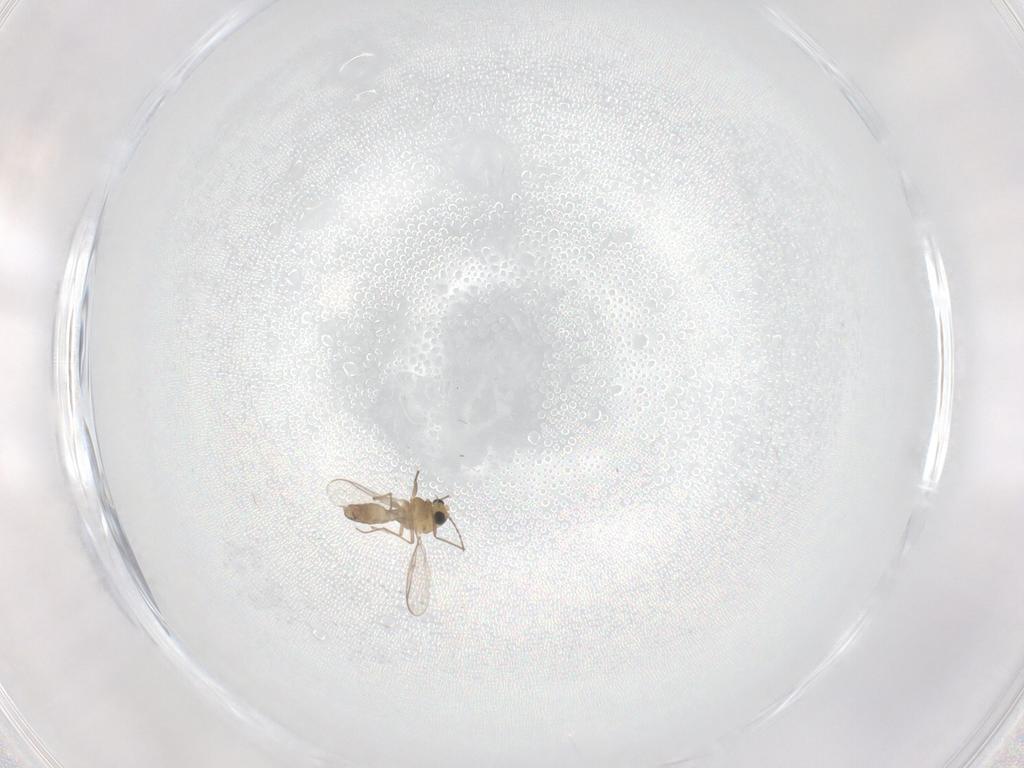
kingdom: Animalia
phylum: Arthropoda
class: Insecta
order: Diptera
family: Chironomidae
